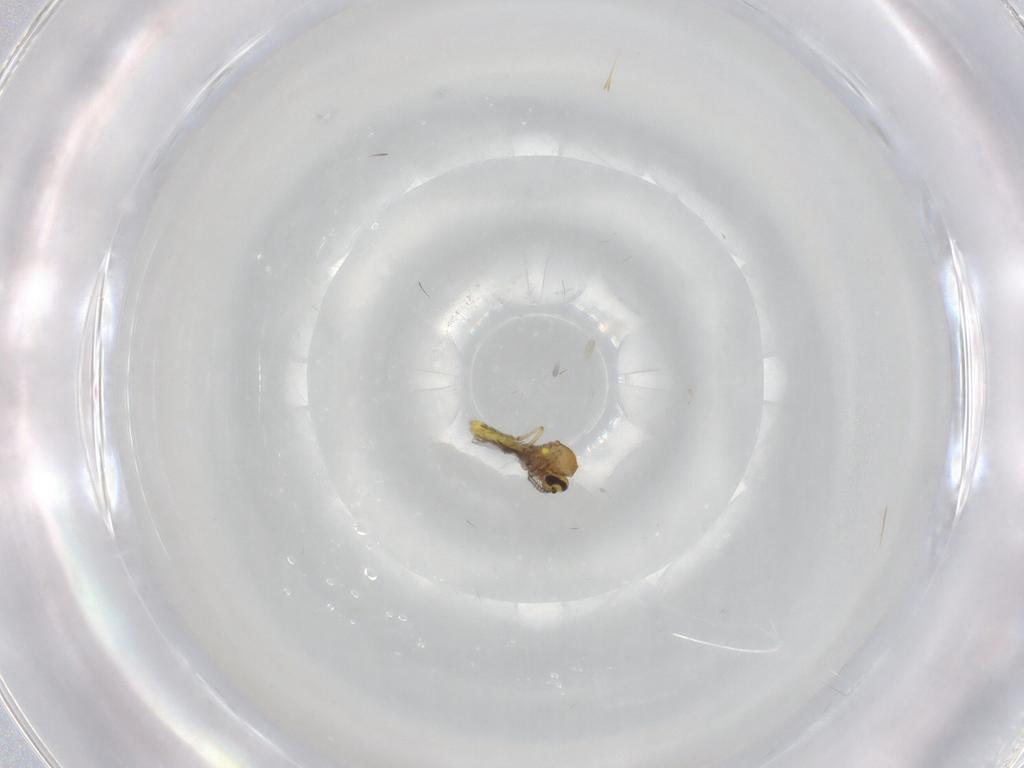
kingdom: Animalia
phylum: Arthropoda
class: Insecta
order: Diptera
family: Ceratopogonidae
